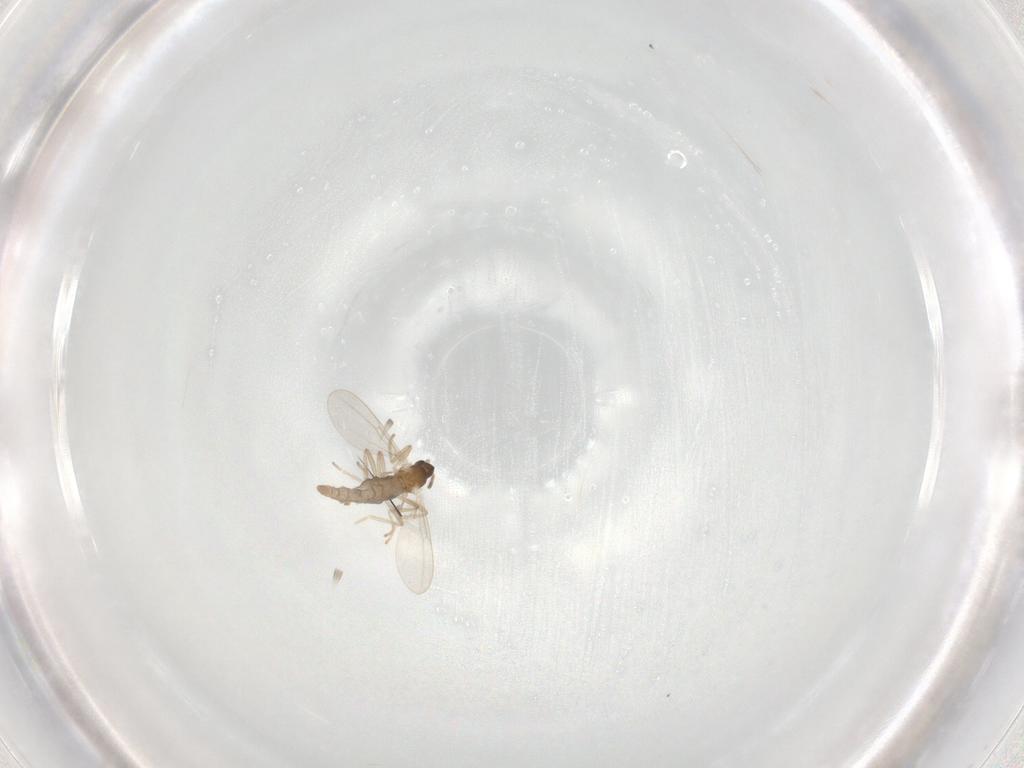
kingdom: Animalia
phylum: Arthropoda
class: Insecta
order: Diptera
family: Cecidomyiidae
